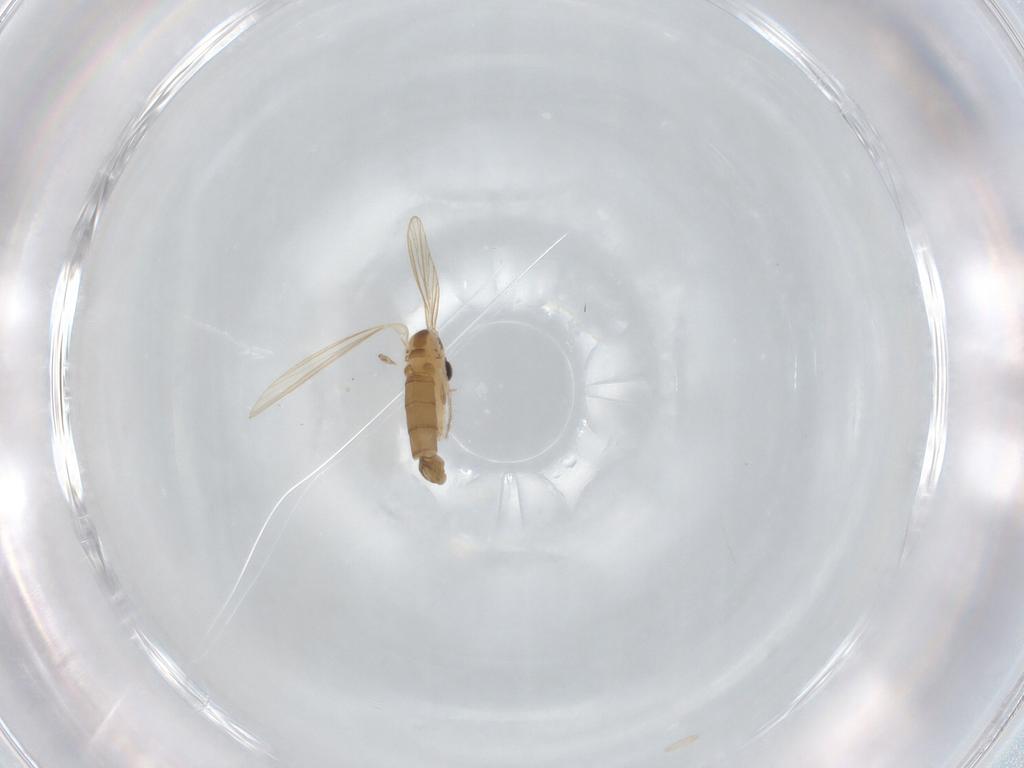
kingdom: Animalia
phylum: Arthropoda
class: Insecta
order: Diptera
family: Psychodidae
